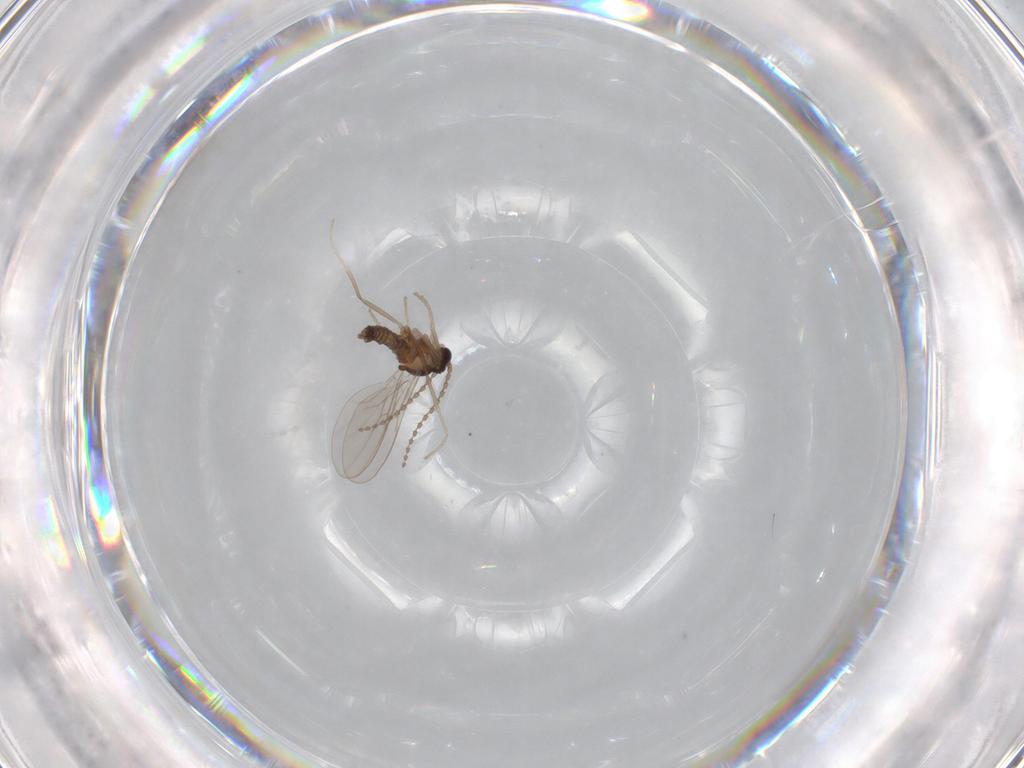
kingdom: Animalia
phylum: Arthropoda
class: Insecta
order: Diptera
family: Cecidomyiidae
